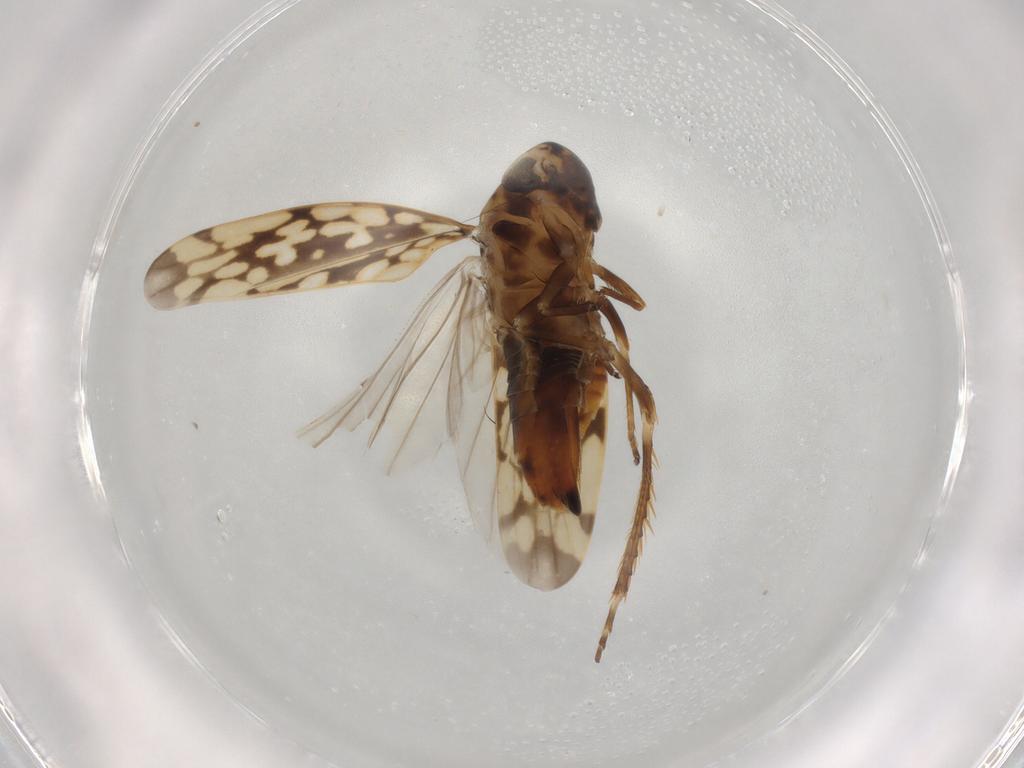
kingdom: Animalia
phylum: Arthropoda
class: Insecta
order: Hemiptera
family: Cicadellidae
